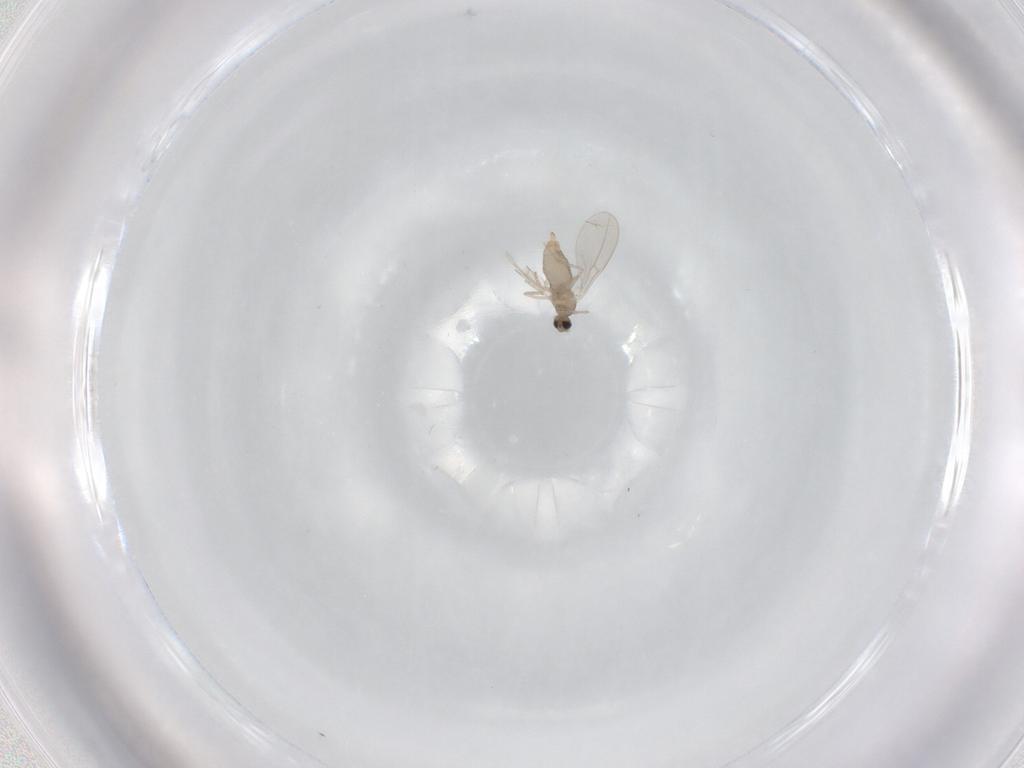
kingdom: Animalia
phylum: Arthropoda
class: Insecta
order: Diptera
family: Cecidomyiidae
